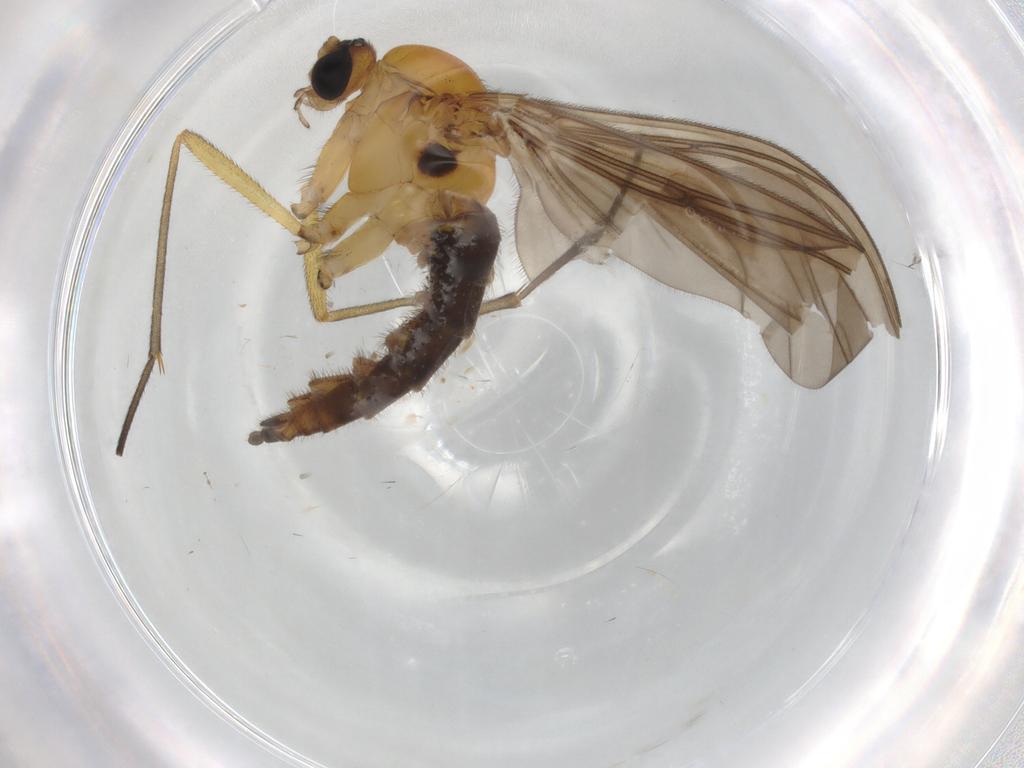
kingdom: Animalia
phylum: Arthropoda
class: Insecta
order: Diptera
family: Sciaridae
